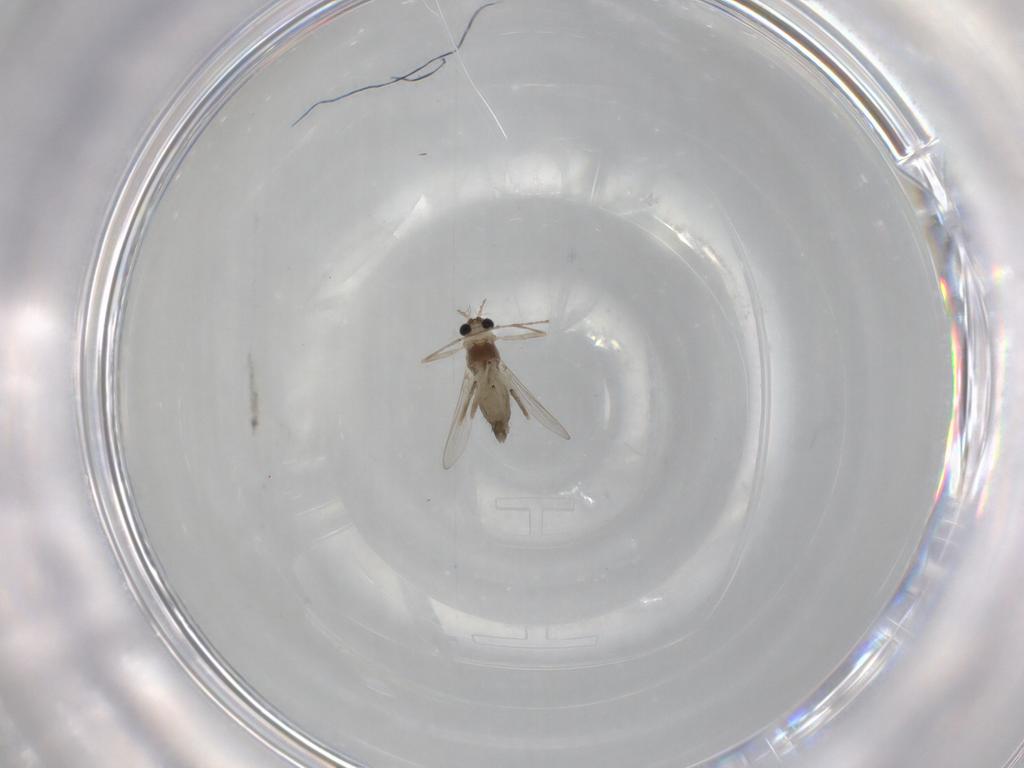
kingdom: Animalia
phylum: Arthropoda
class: Insecta
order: Diptera
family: Chironomidae
